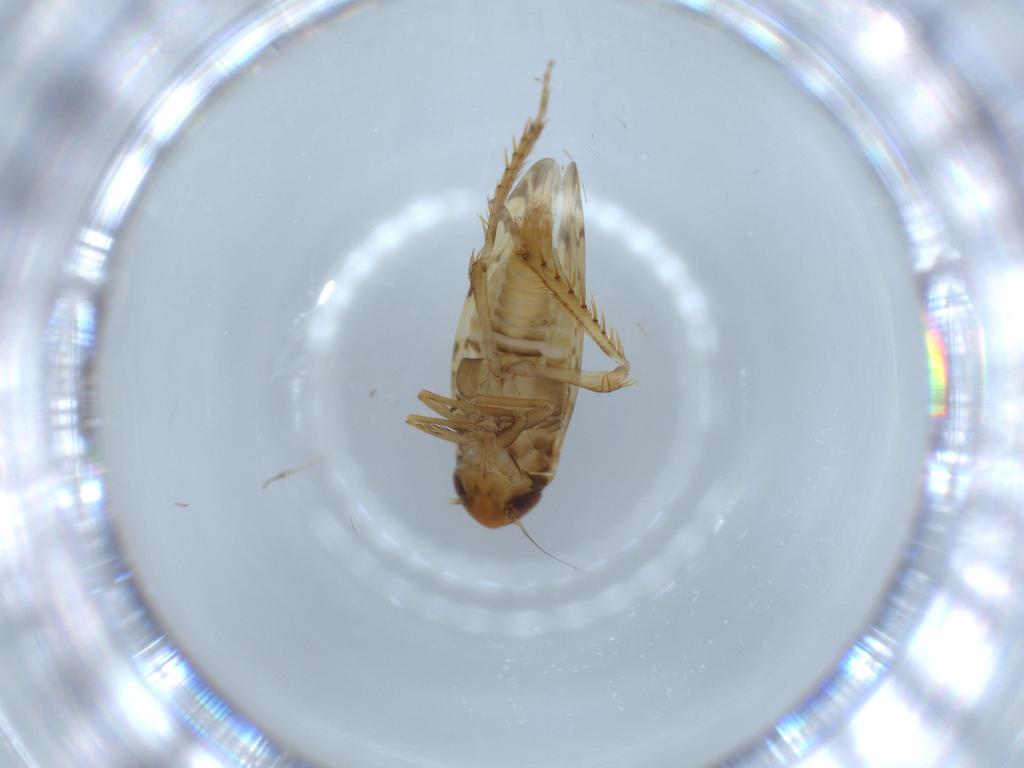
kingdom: Animalia
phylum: Arthropoda
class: Insecta
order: Hemiptera
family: Cicadellidae
